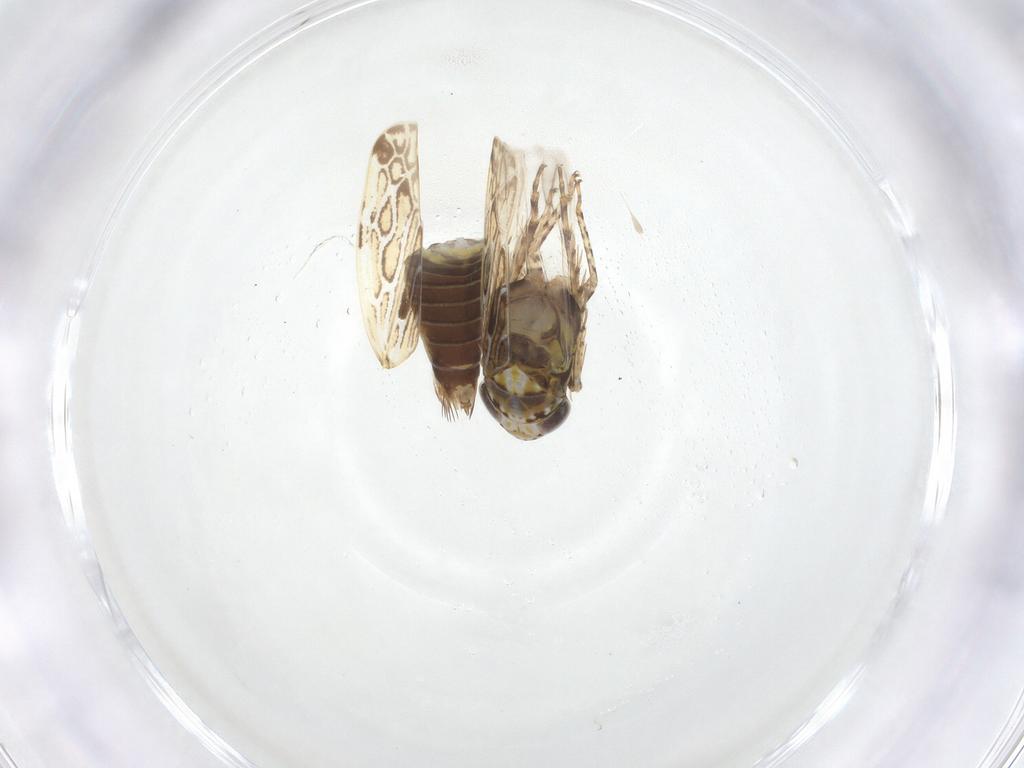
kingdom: Animalia
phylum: Arthropoda
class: Insecta
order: Hemiptera
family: Cicadellidae
